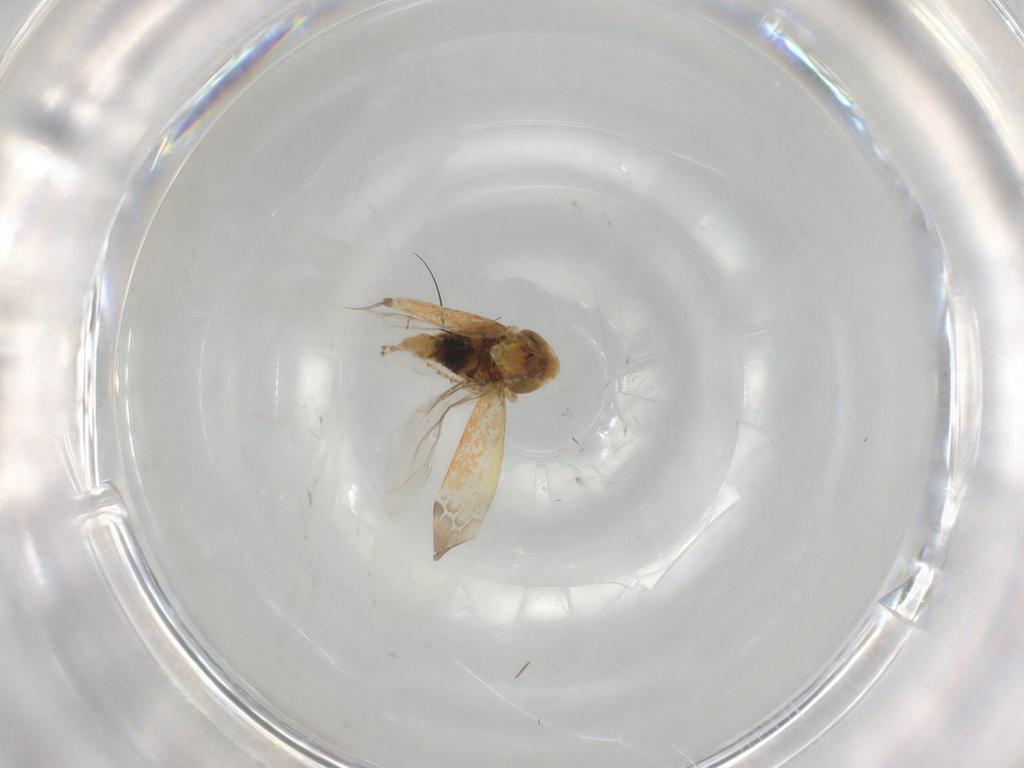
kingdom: Animalia
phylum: Arthropoda
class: Insecta
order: Hemiptera
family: Cicadellidae
